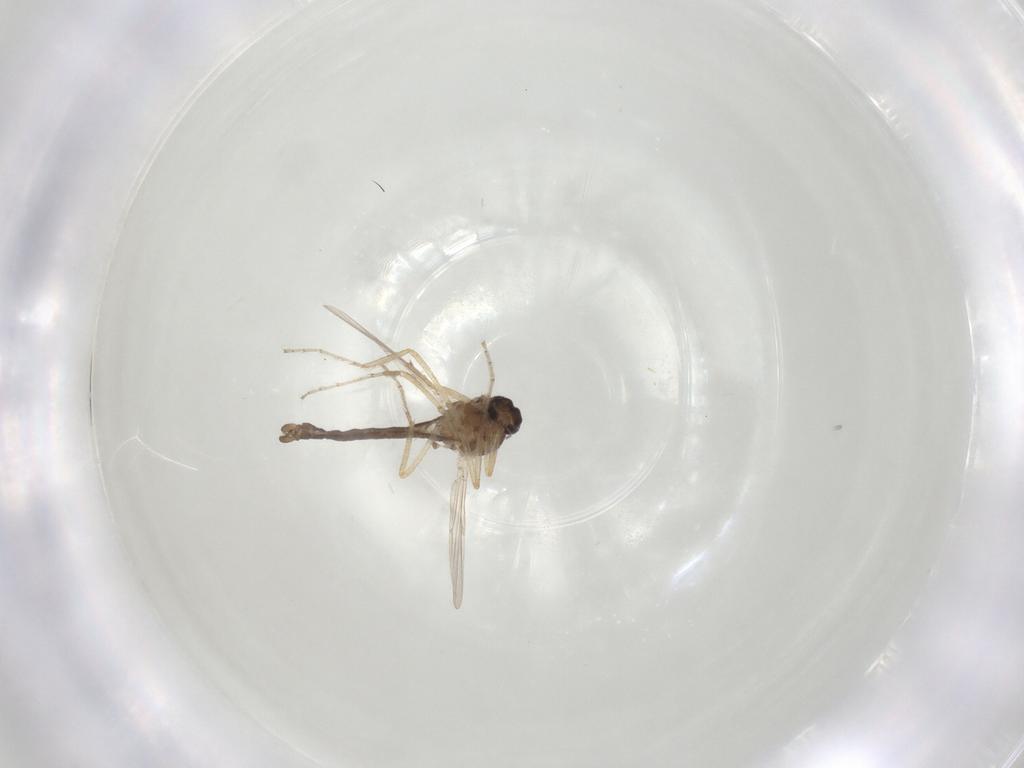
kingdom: Animalia
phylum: Arthropoda
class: Insecta
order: Diptera
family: Ceratopogonidae
